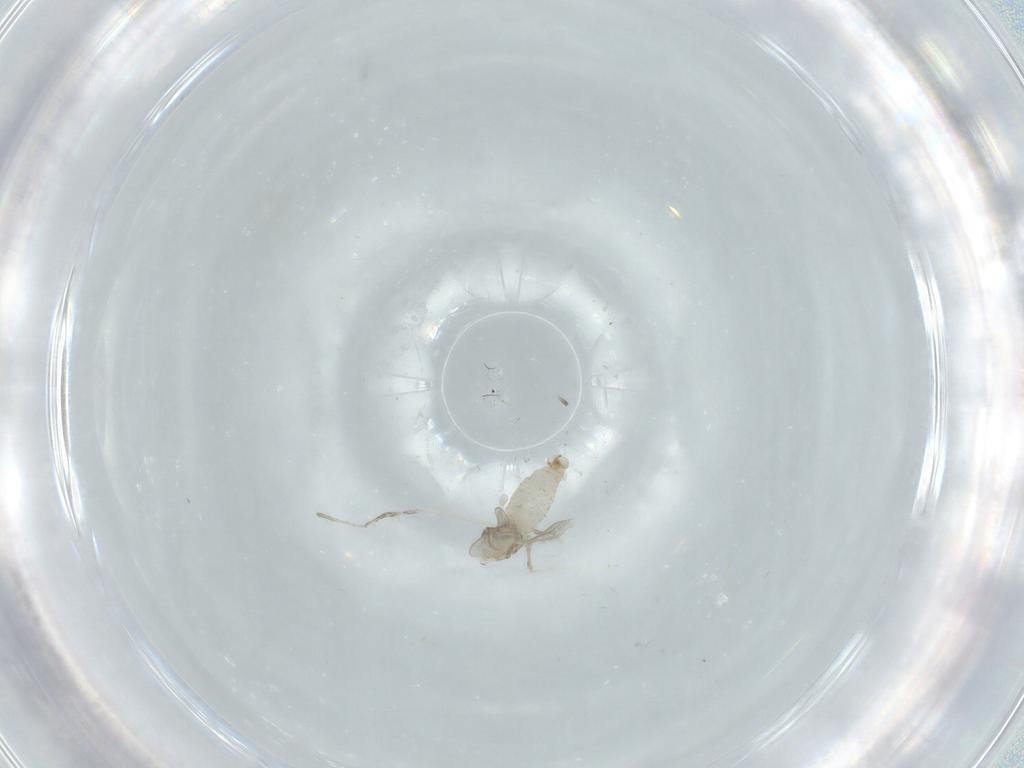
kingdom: Animalia
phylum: Arthropoda
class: Insecta
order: Diptera
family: Cecidomyiidae
